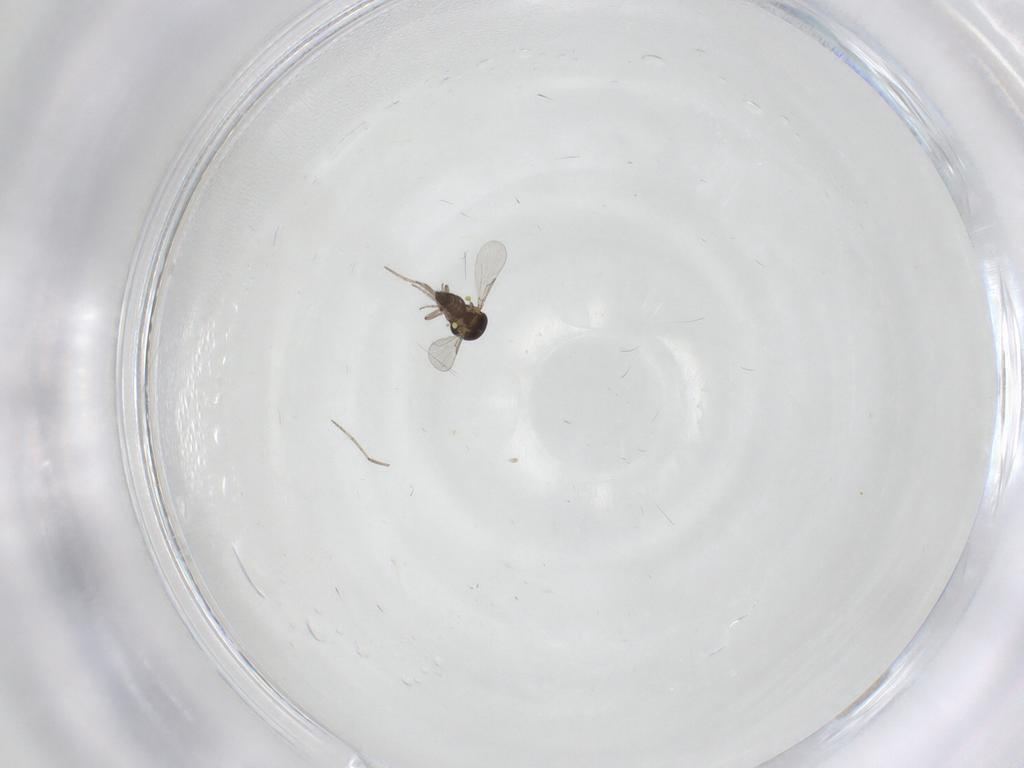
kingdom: Animalia
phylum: Arthropoda
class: Insecta
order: Diptera
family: Ceratopogonidae
